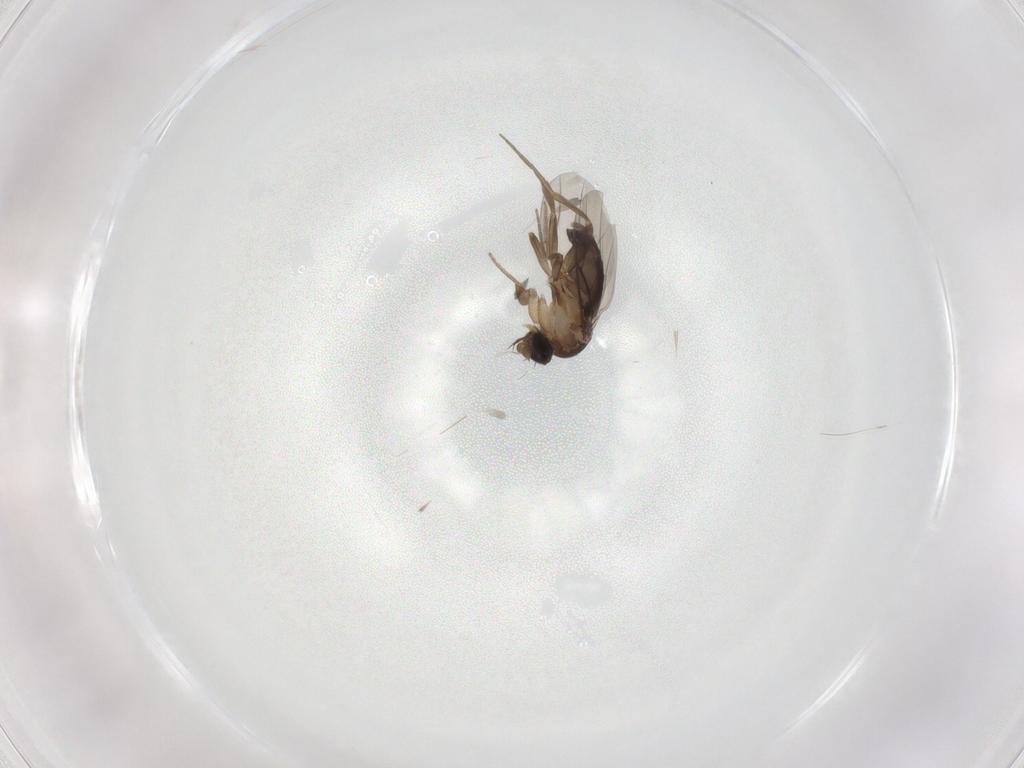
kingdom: Animalia
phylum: Arthropoda
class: Insecta
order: Diptera
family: Phoridae
